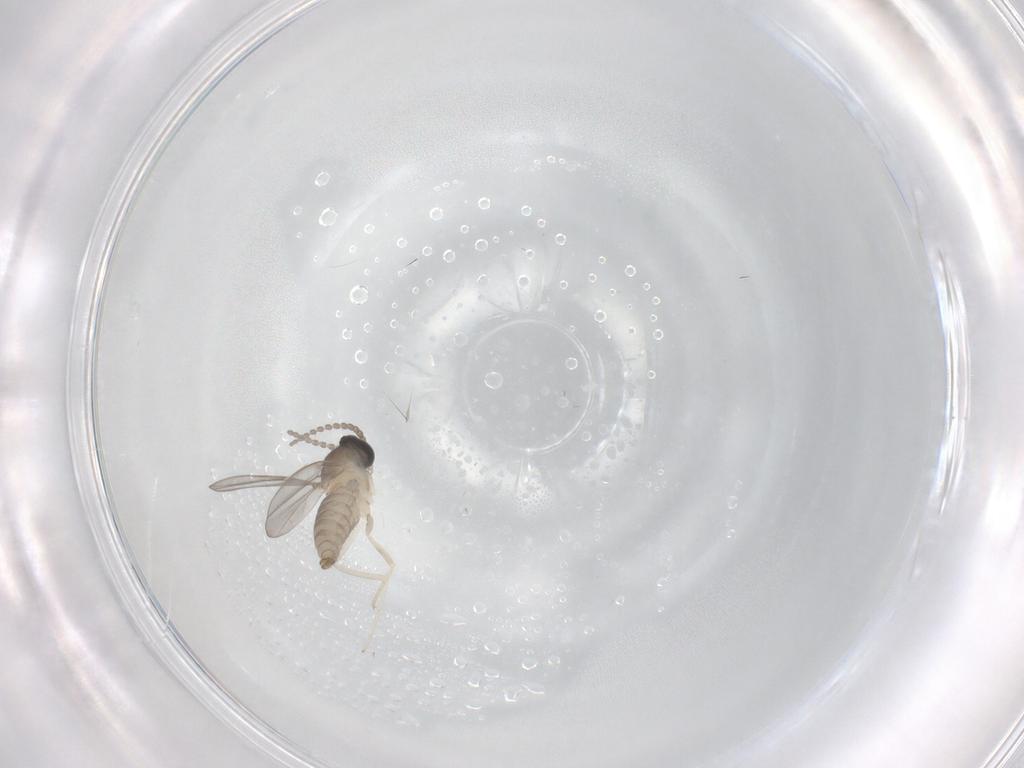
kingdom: Animalia
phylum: Arthropoda
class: Insecta
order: Diptera
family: Cecidomyiidae
